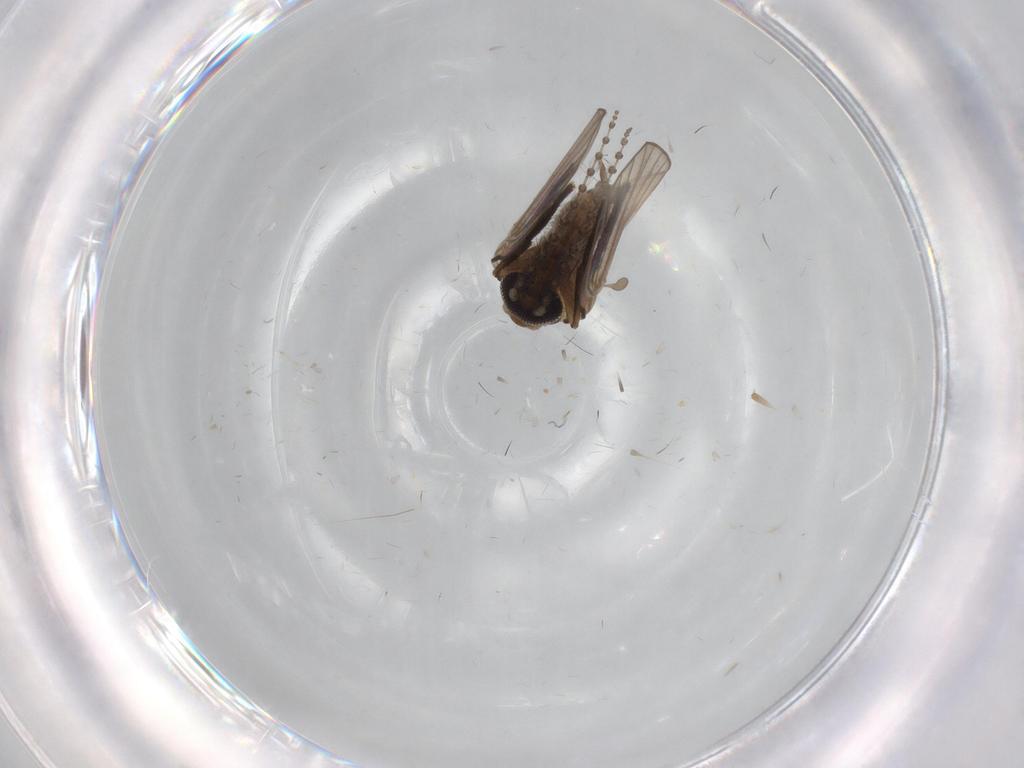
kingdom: Animalia
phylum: Arthropoda
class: Insecta
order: Diptera
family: Psychodidae
